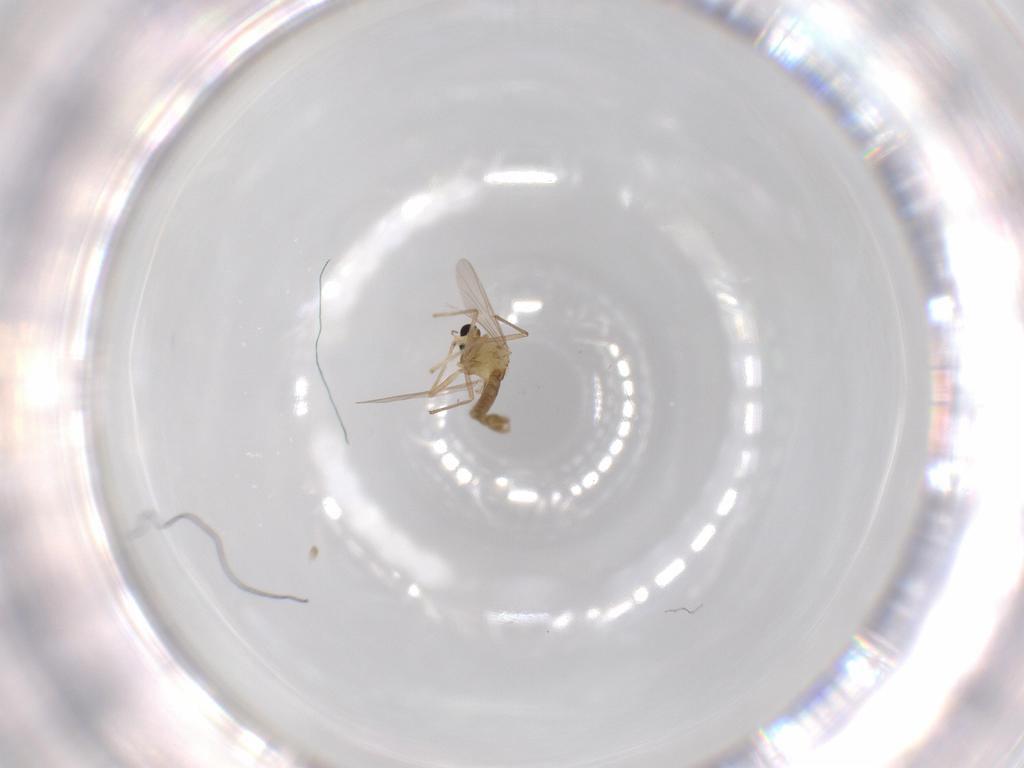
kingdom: Animalia
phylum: Arthropoda
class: Insecta
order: Diptera
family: Chironomidae
